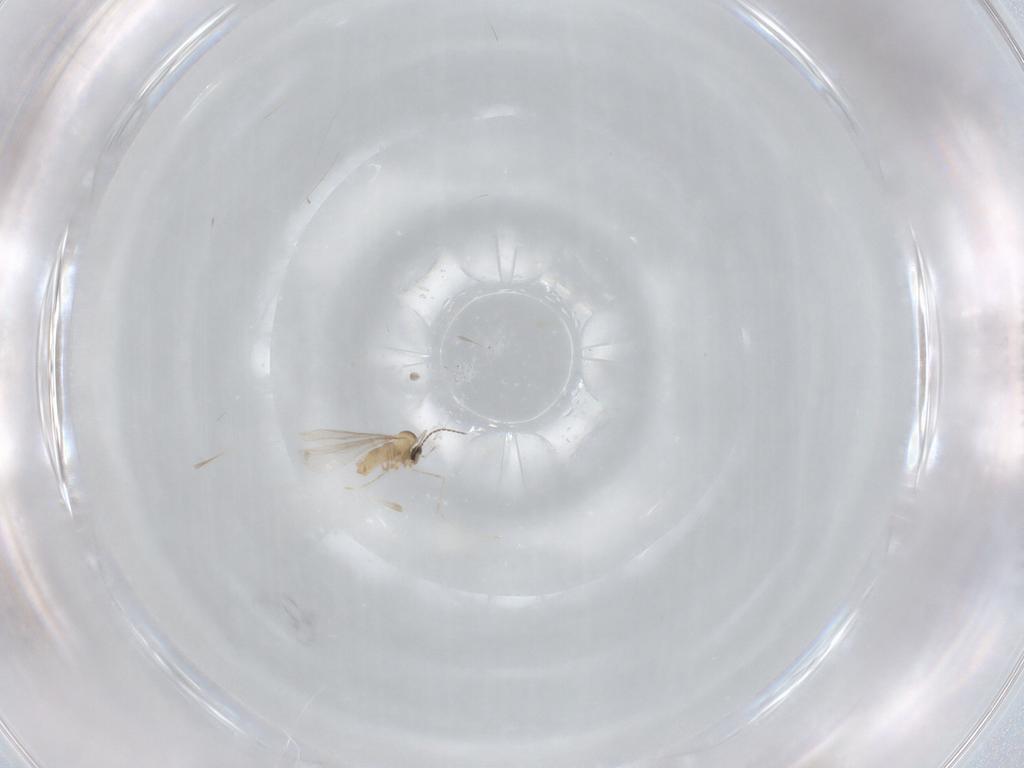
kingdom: Animalia
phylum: Arthropoda
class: Insecta
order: Diptera
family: Cecidomyiidae
